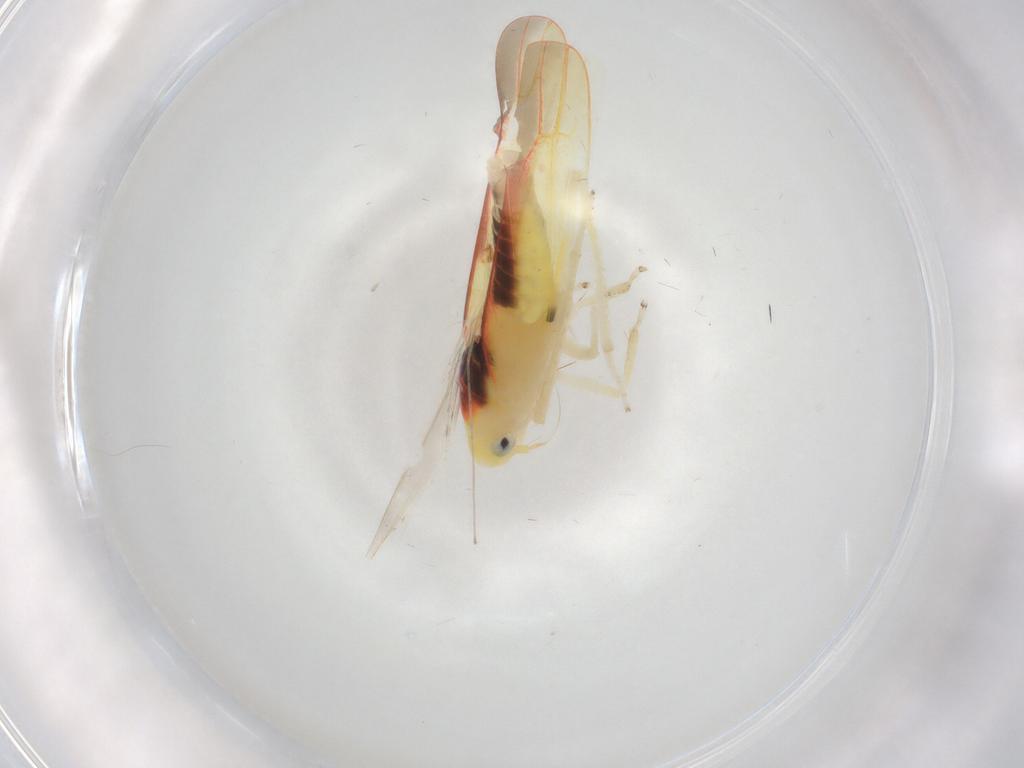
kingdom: Animalia
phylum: Arthropoda
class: Insecta
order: Hemiptera
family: Cicadellidae
